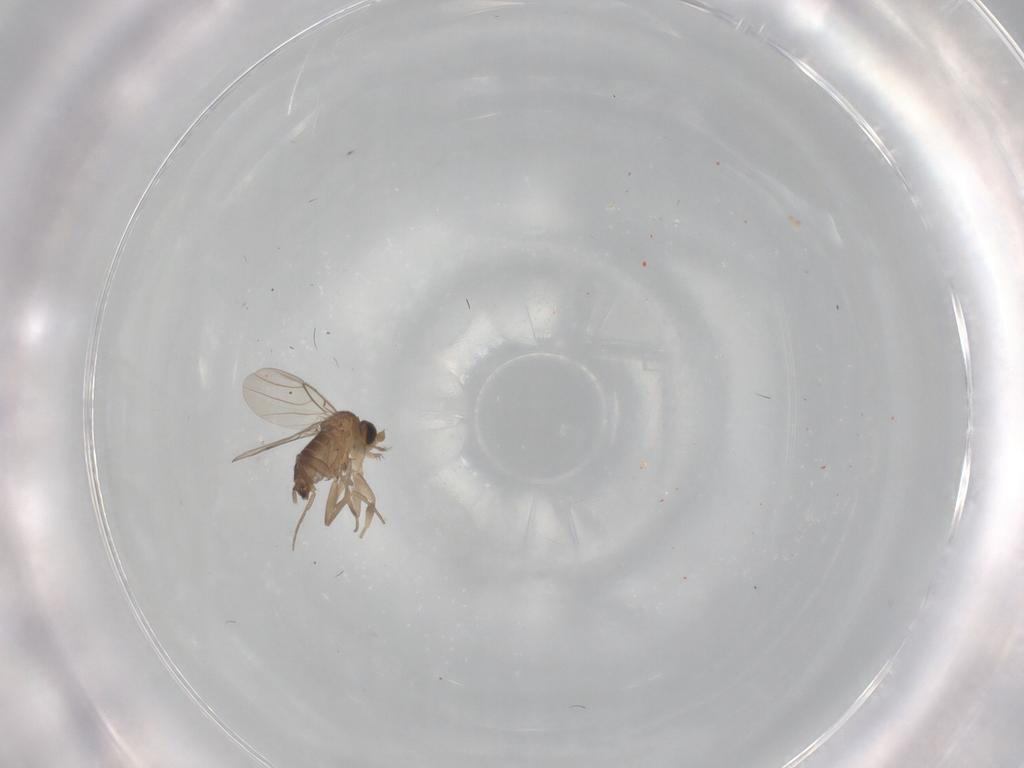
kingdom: Animalia
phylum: Arthropoda
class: Insecta
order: Diptera
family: Phoridae
